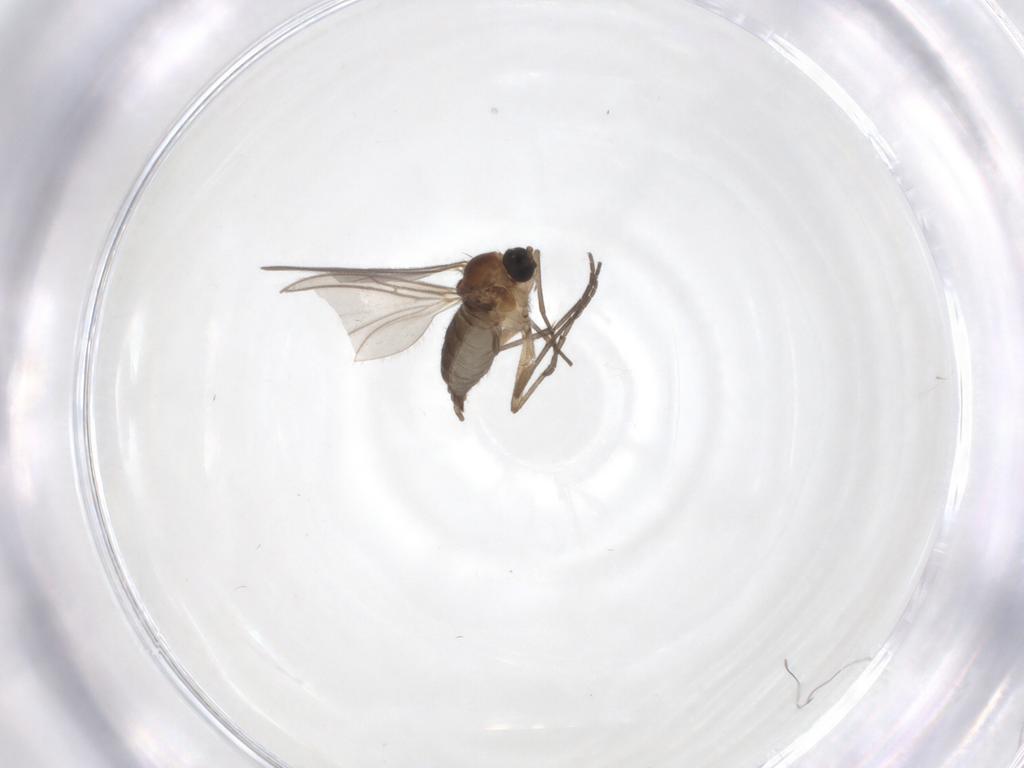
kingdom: Animalia
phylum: Arthropoda
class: Insecta
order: Diptera
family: Sciaridae
